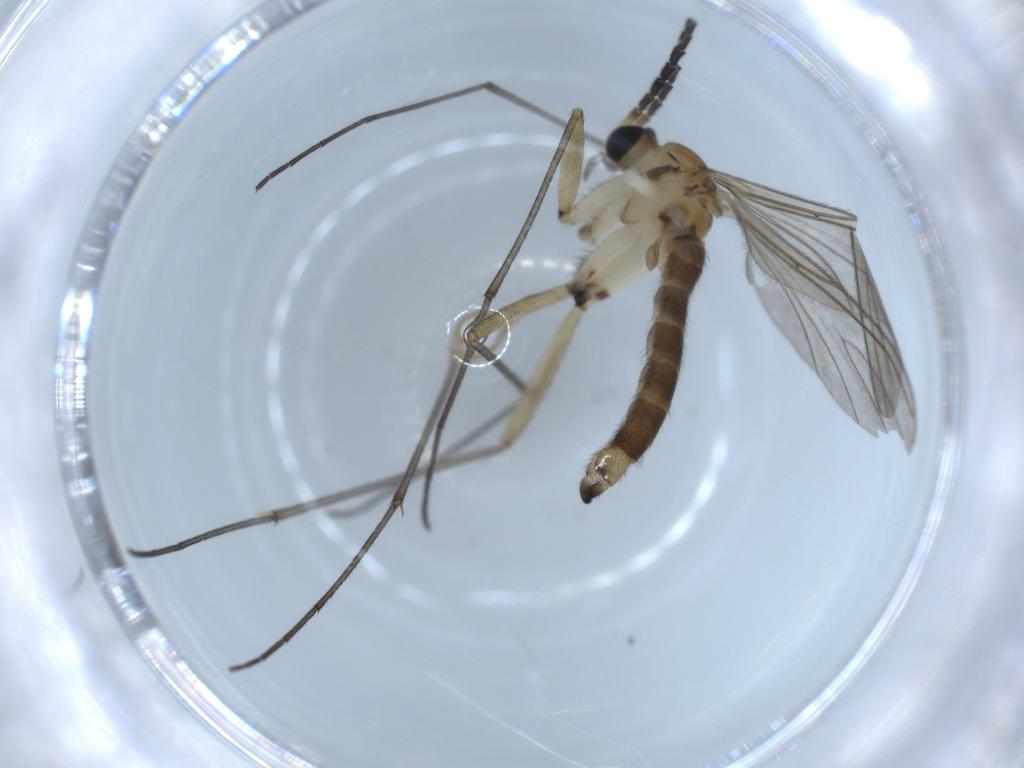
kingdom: Animalia
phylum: Arthropoda
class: Insecta
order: Diptera
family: Sciaridae
